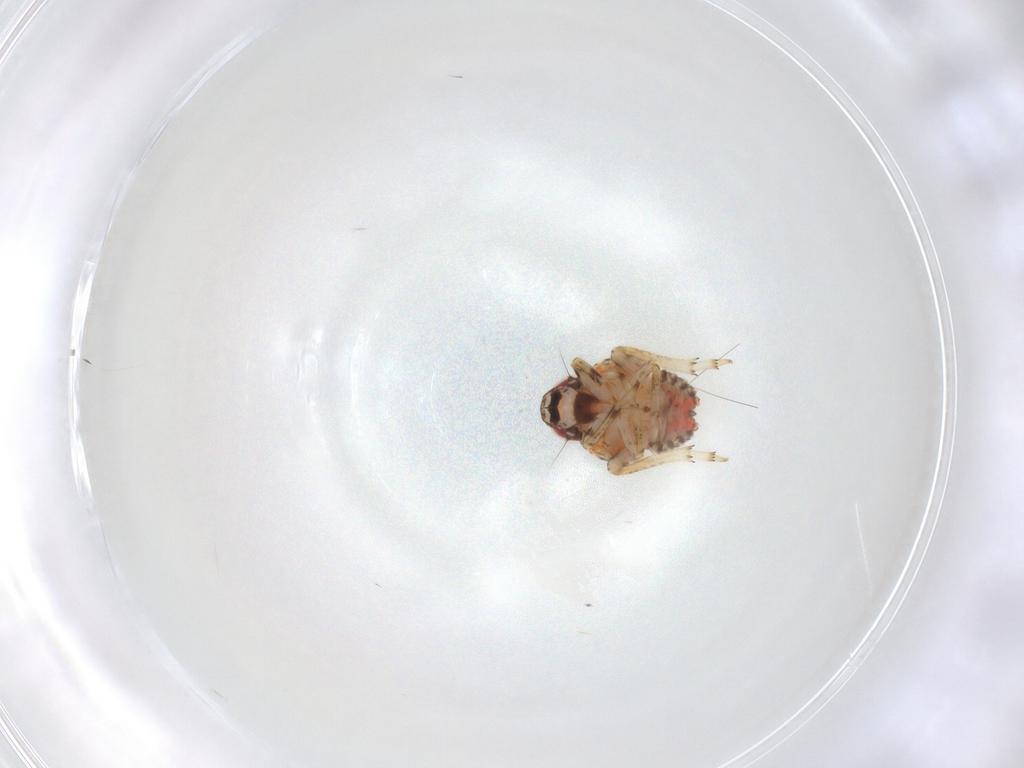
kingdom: Animalia
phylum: Arthropoda
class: Insecta
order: Hemiptera
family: Issidae
